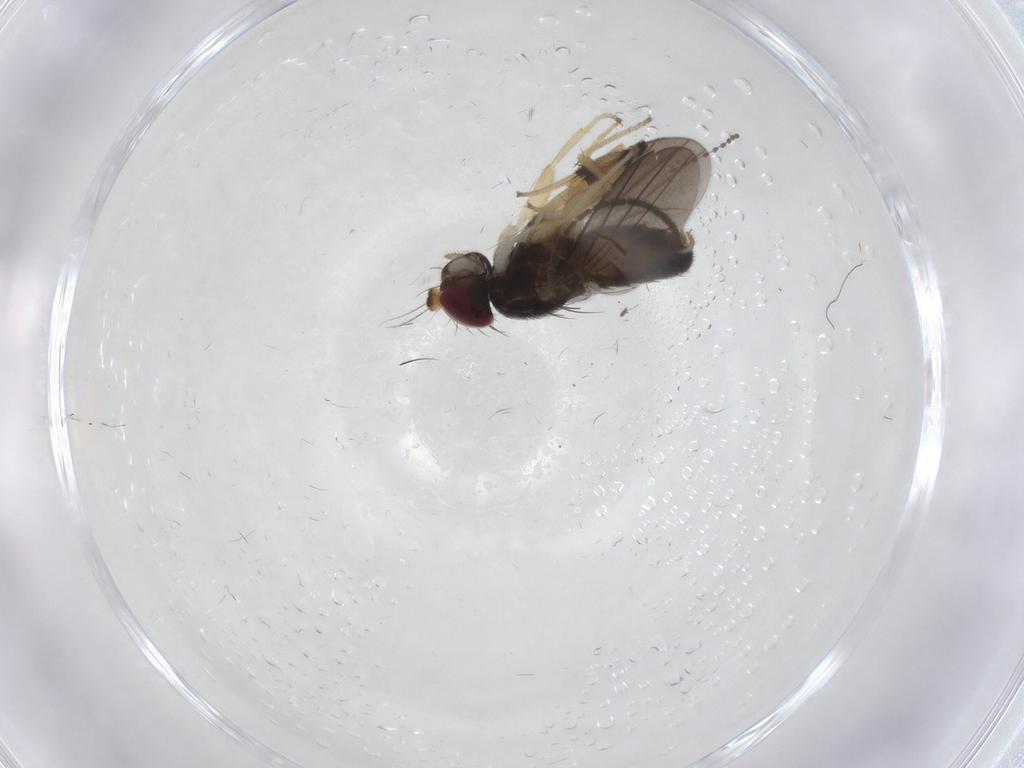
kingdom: Animalia
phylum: Arthropoda
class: Insecta
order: Diptera
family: Clusiidae
